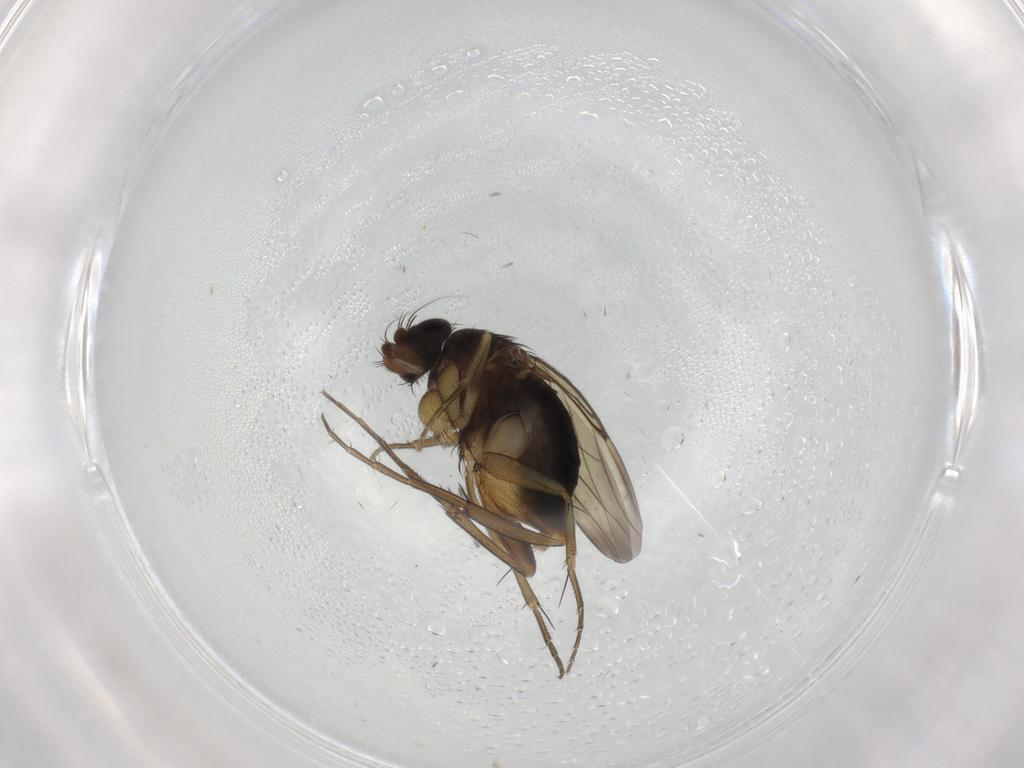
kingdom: Animalia
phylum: Arthropoda
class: Insecta
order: Diptera
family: Phoridae
